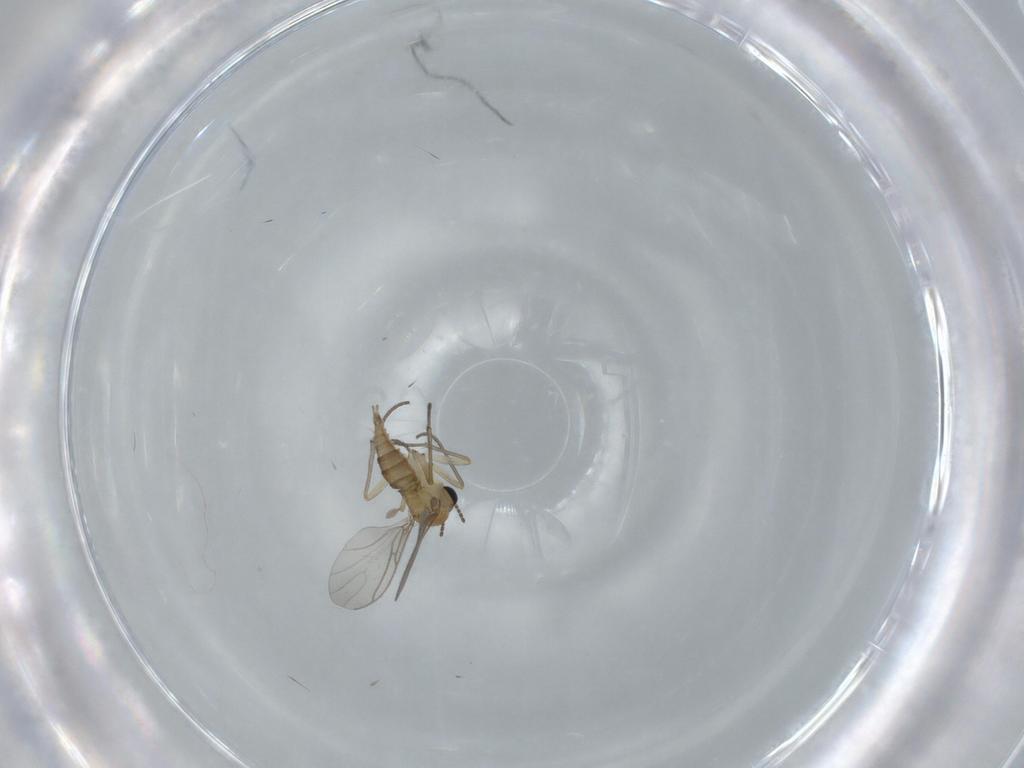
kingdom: Animalia
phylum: Arthropoda
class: Insecta
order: Diptera
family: Sciaridae
